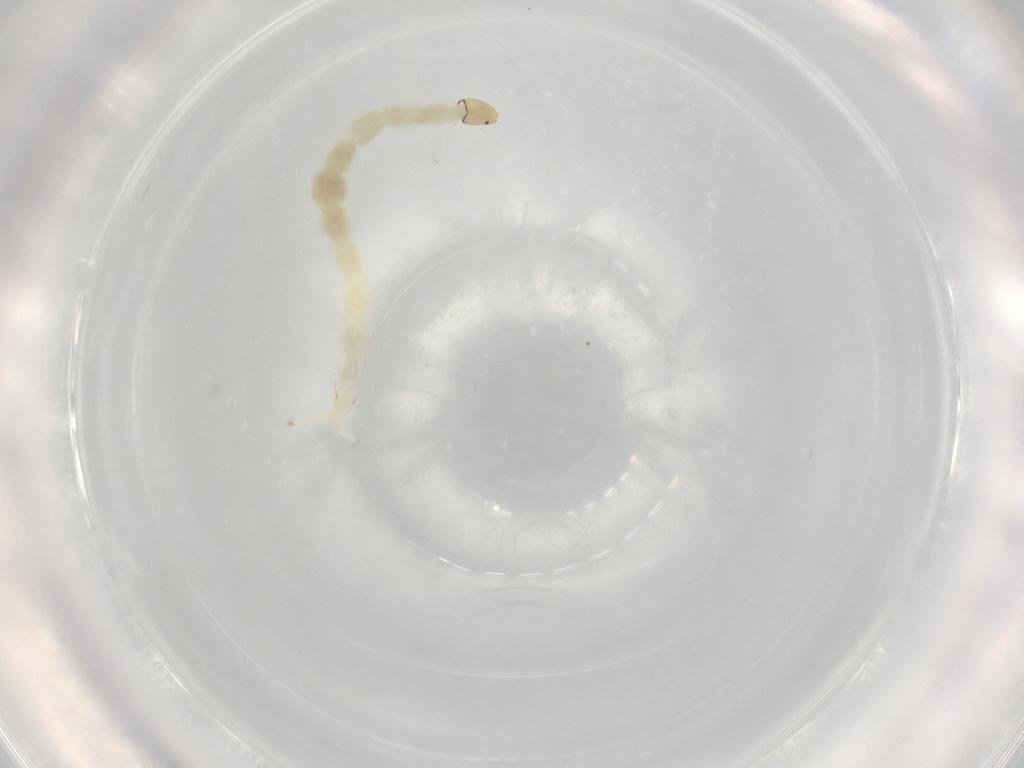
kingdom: Animalia
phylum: Arthropoda
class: Insecta
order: Diptera
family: Chironomidae
